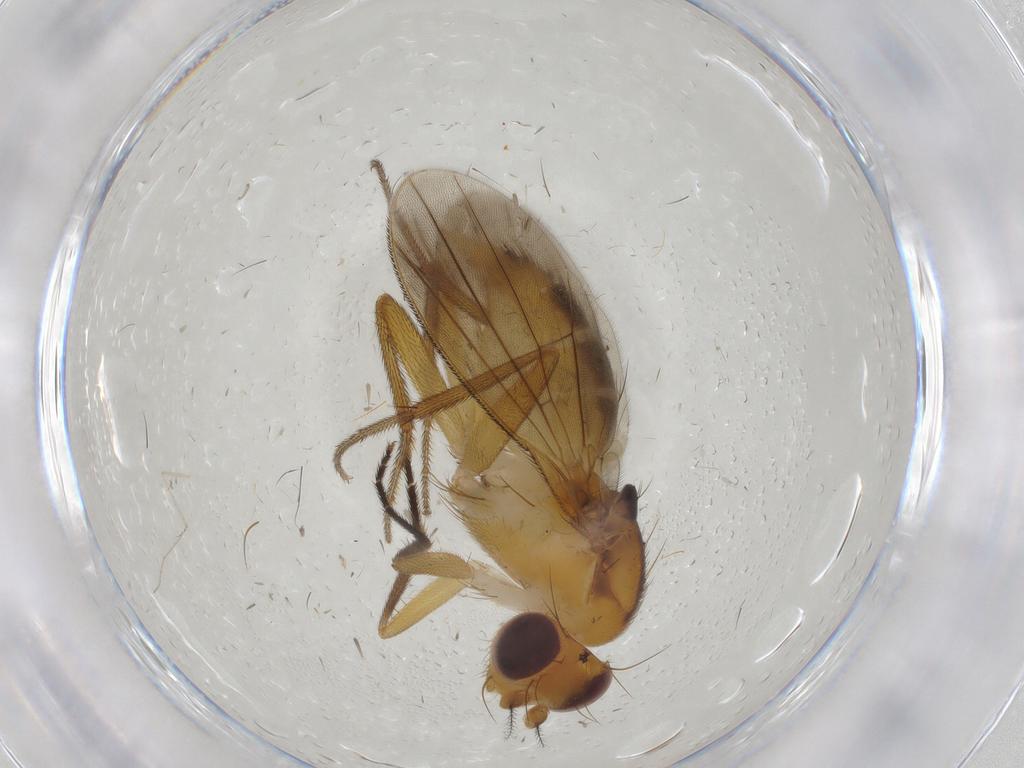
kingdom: Animalia
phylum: Arthropoda
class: Insecta
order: Diptera
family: Clusiidae
